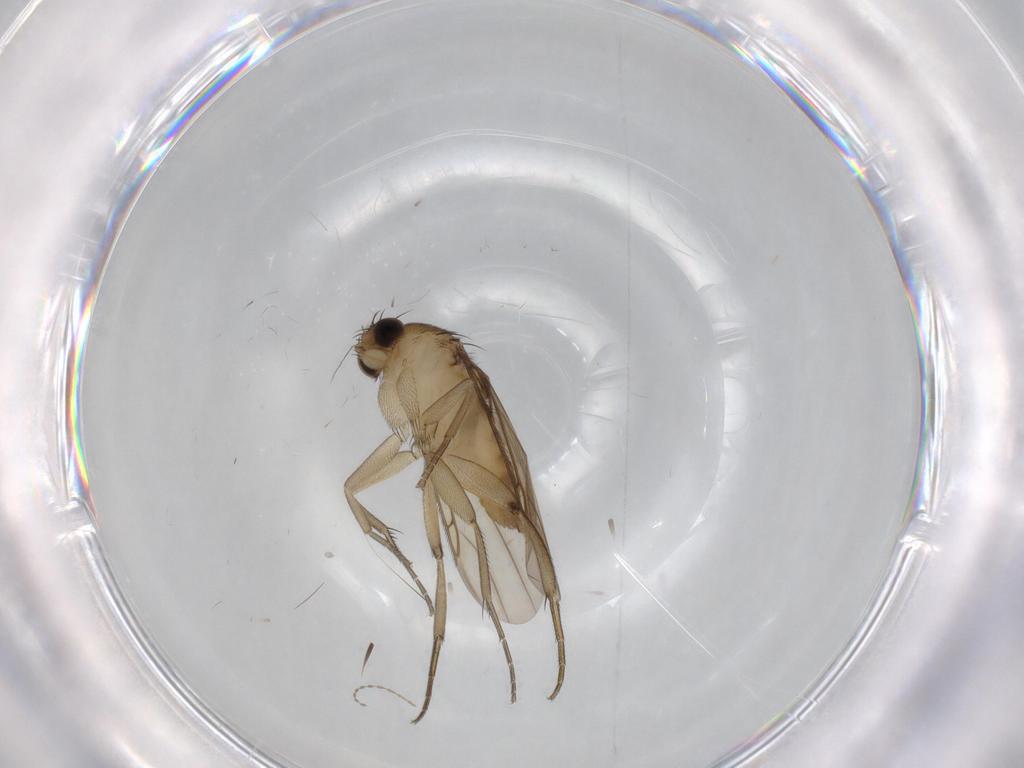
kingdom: Animalia
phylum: Arthropoda
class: Insecta
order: Diptera
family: Phoridae
